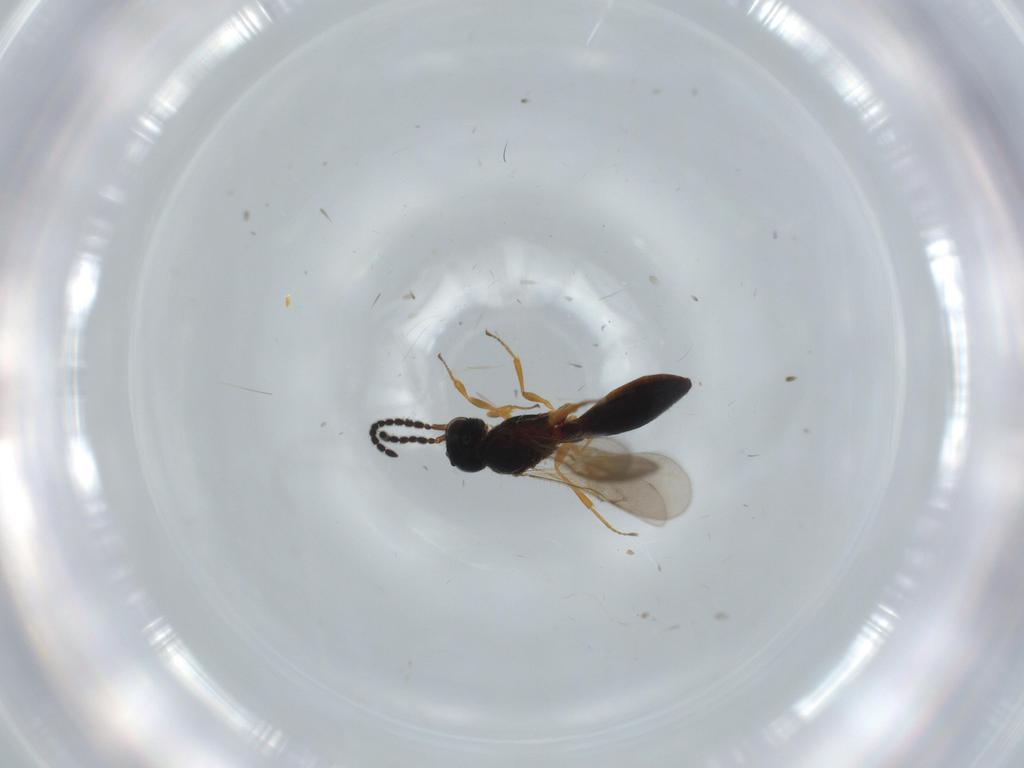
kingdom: Animalia
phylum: Arthropoda
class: Insecta
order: Hymenoptera
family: Scelionidae
